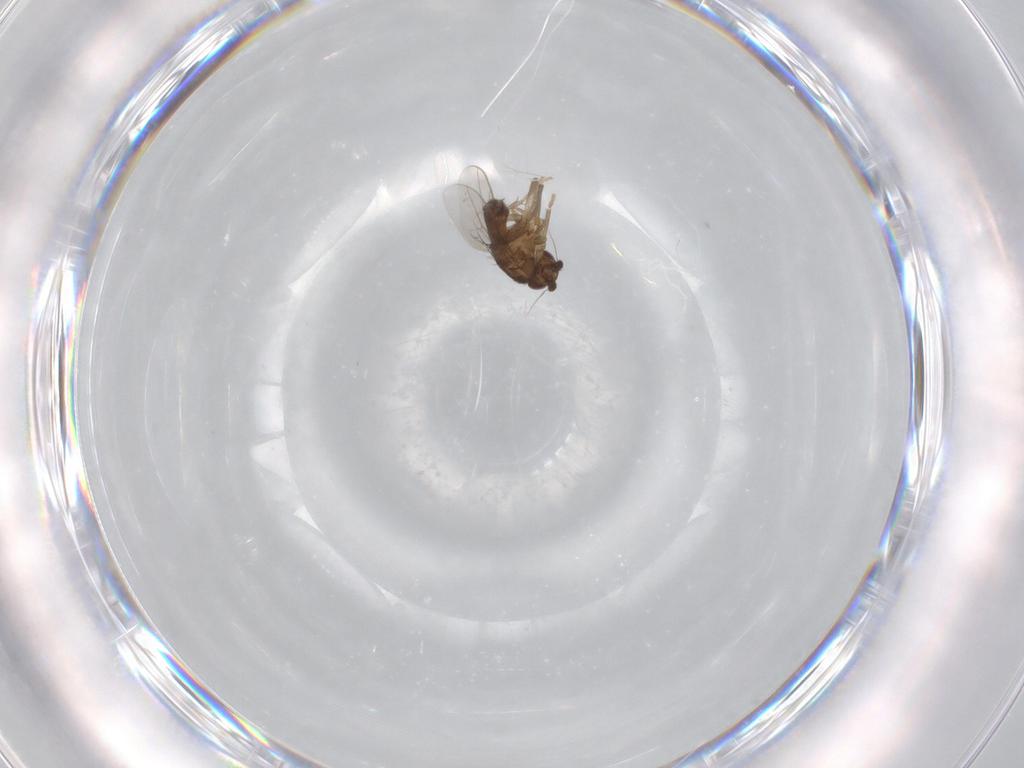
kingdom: Animalia
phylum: Arthropoda
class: Insecta
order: Diptera
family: Sphaeroceridae
